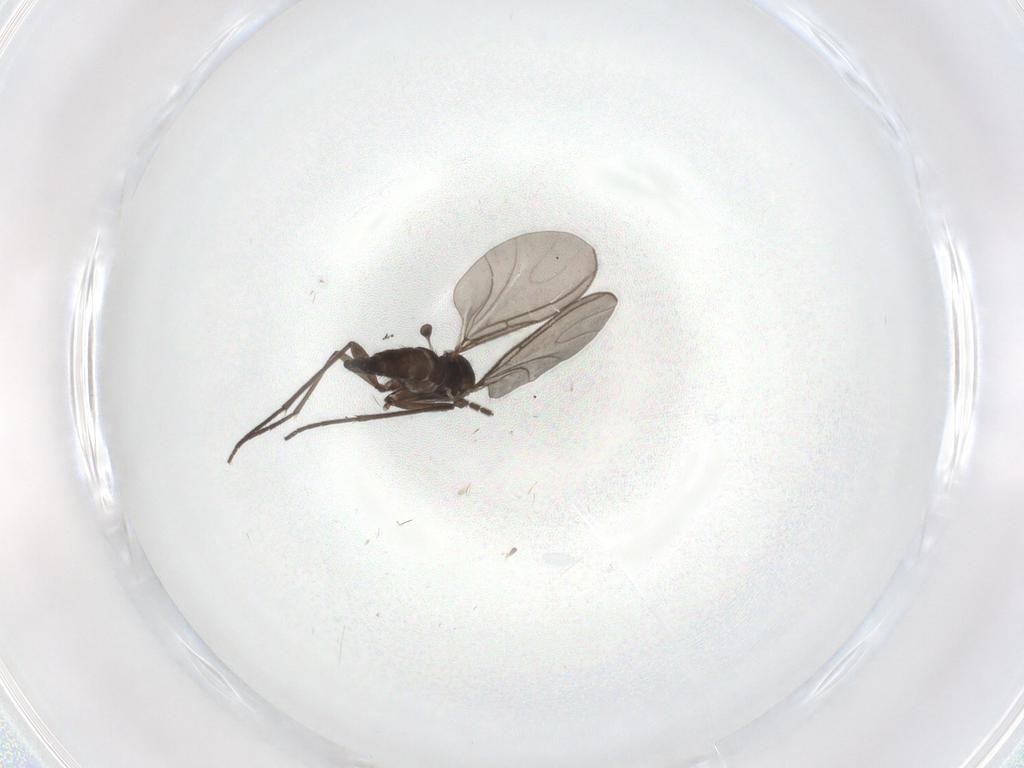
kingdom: Animalia
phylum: Arthropoda
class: Insecta
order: Diptera
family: Sciaridae
